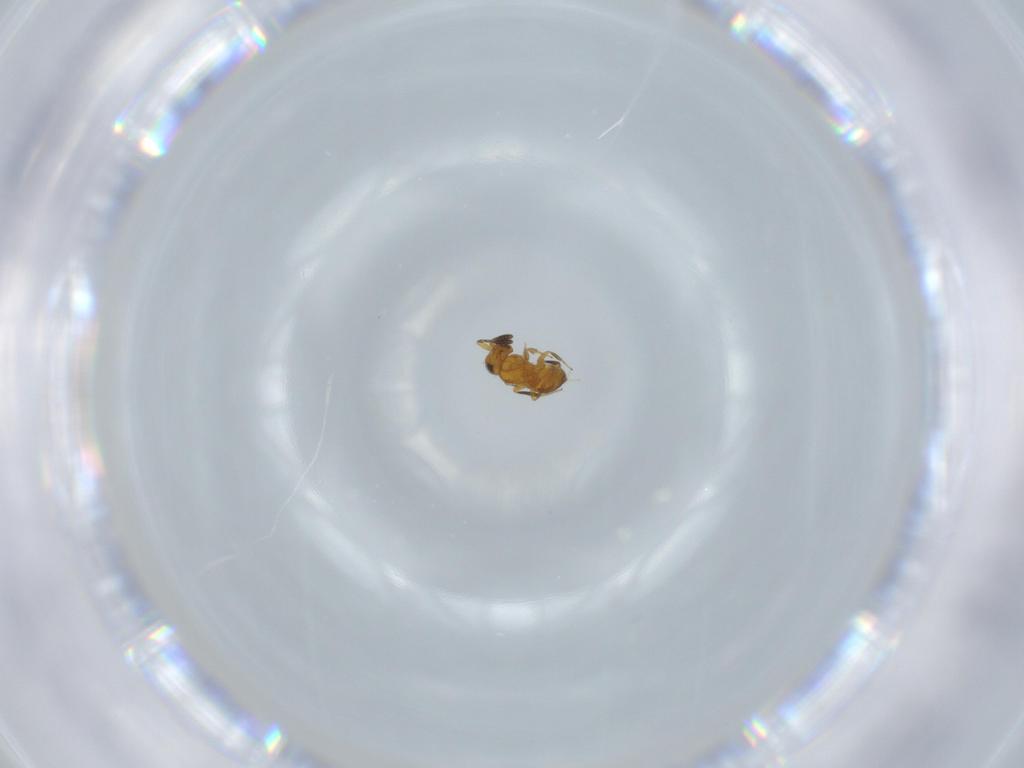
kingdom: Animalia
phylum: Arthropoda
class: Insecta
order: Hymenoptera
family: Scelionidae
